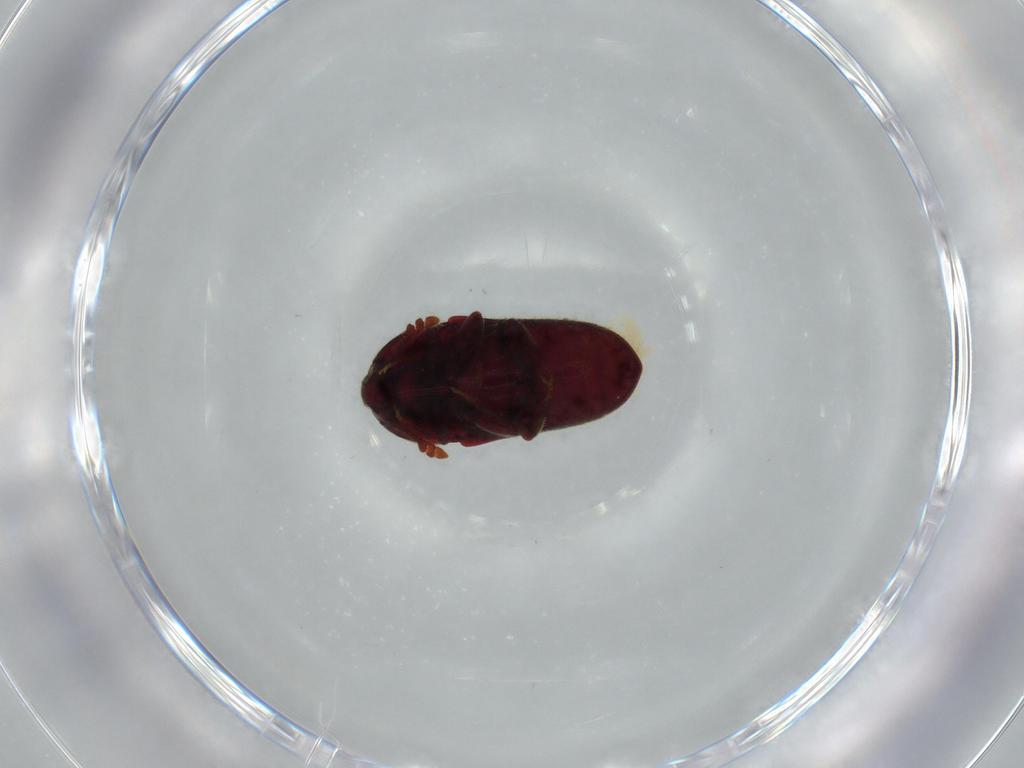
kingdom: Animalia
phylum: Arthropoda
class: Insecta
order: Coleoptera
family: Throscidae
